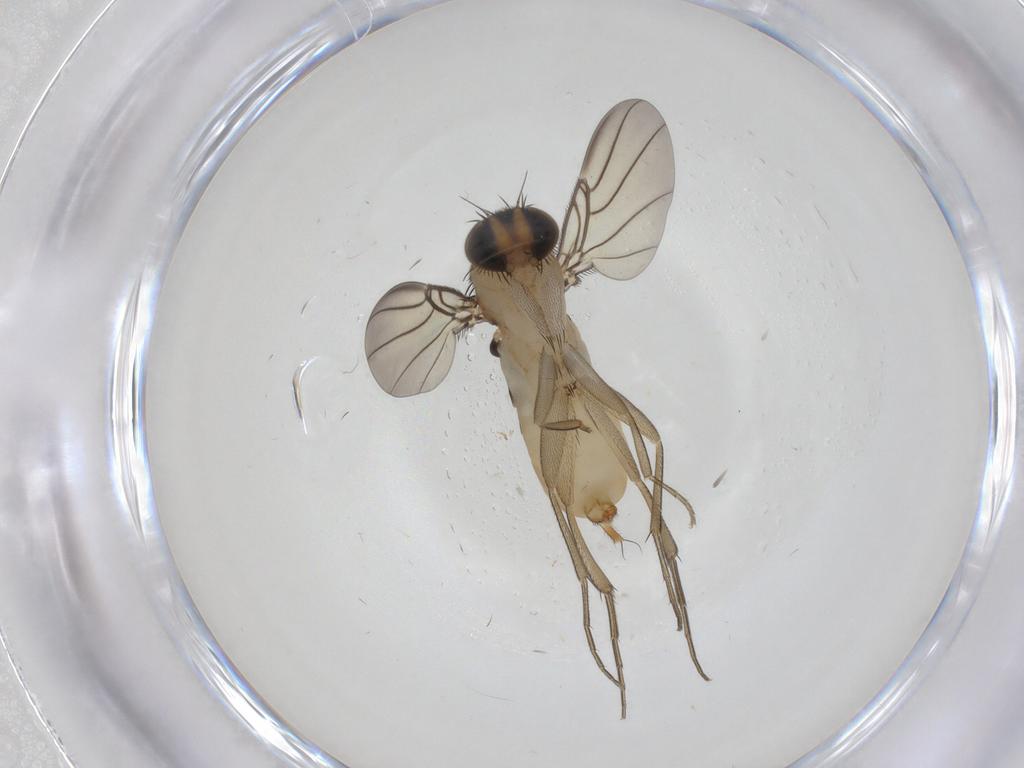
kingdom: Animalia
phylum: Arthropoda
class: Insecta
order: Diptera
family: Phoridae
